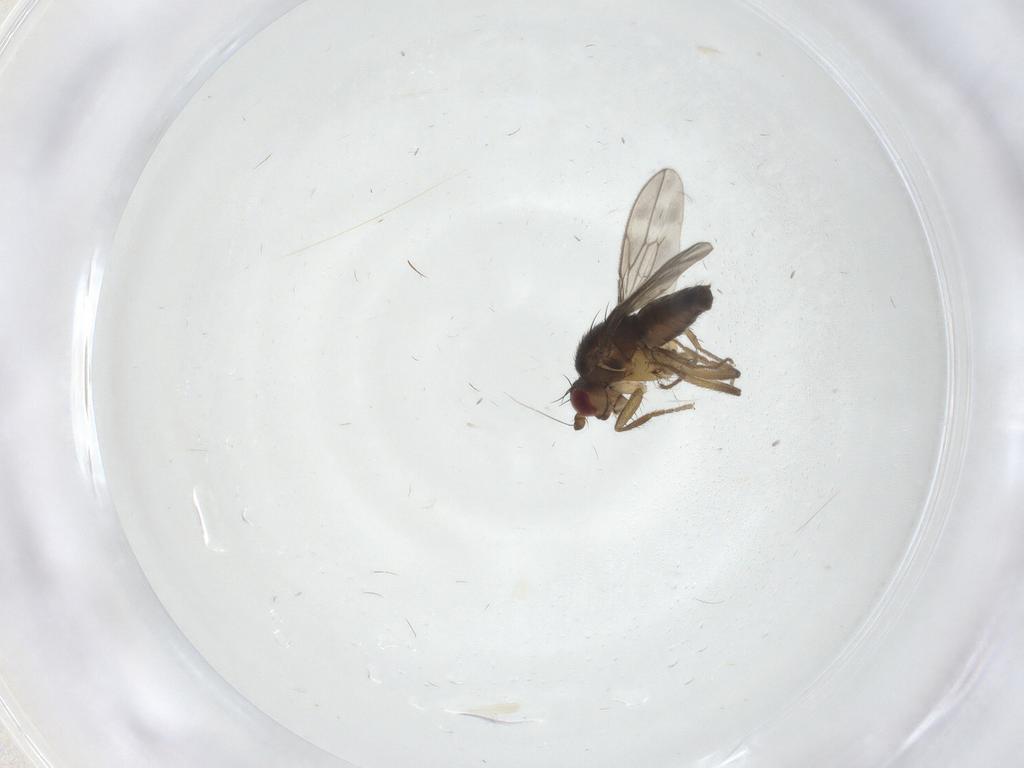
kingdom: Animalia
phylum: Arthropoda
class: Insecta
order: Diptera
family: Sphaeroceridae
